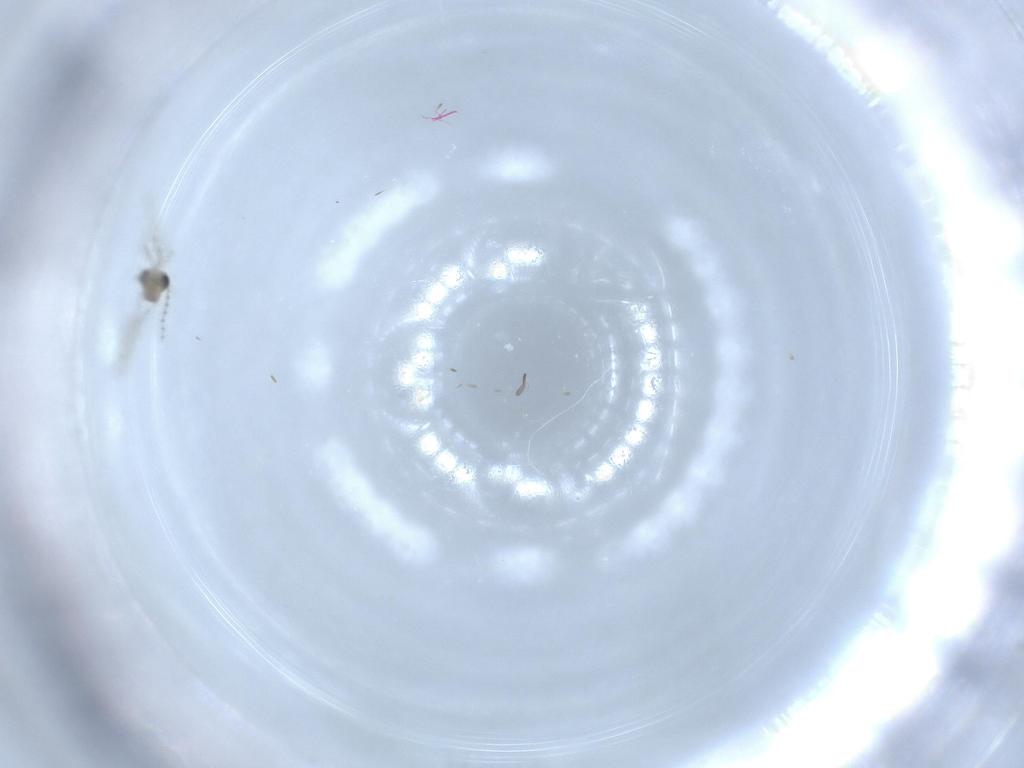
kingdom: Animalia
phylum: Arthropoda
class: Insecta
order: Diptera
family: Cecidomyiidae
